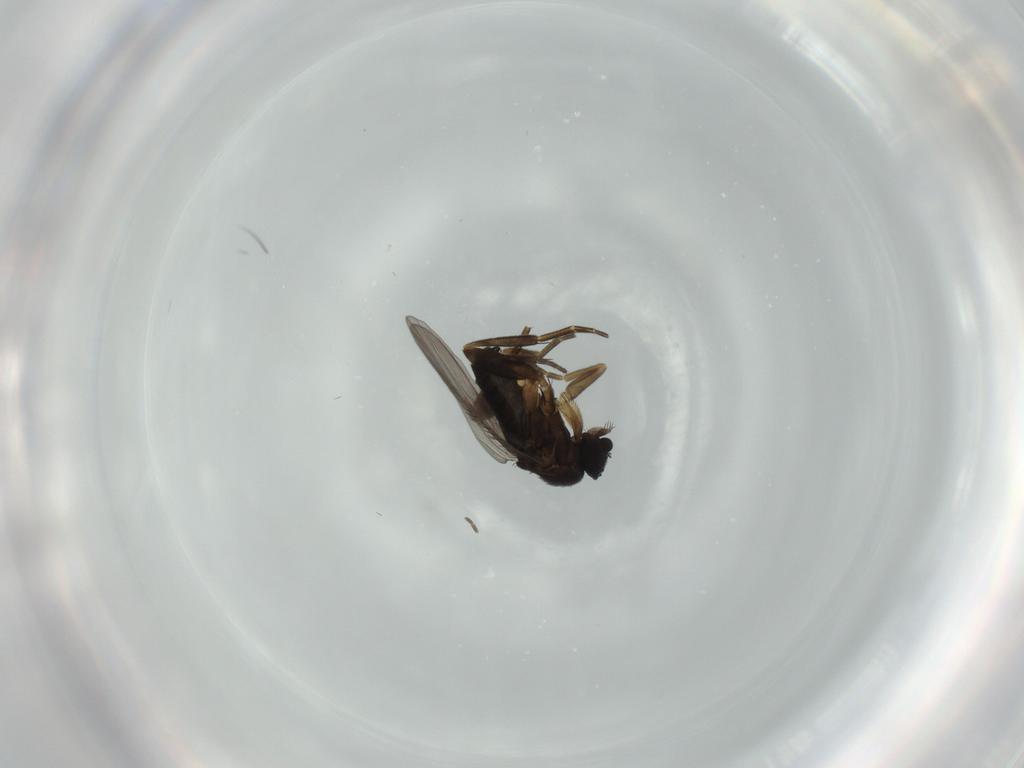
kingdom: Animalia
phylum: Arthropoda
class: Insecta
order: Diptera
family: Phoridae
